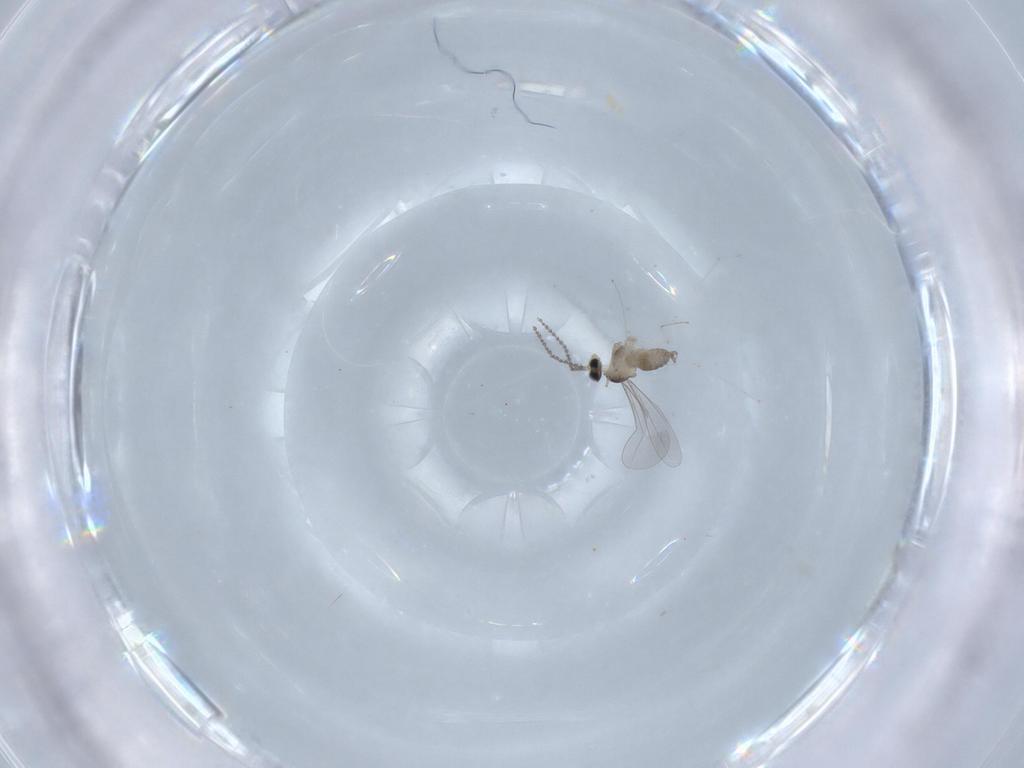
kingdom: Animalia
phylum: Arthropoda
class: Insecta
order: Diptera
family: Cecidomyiidae
